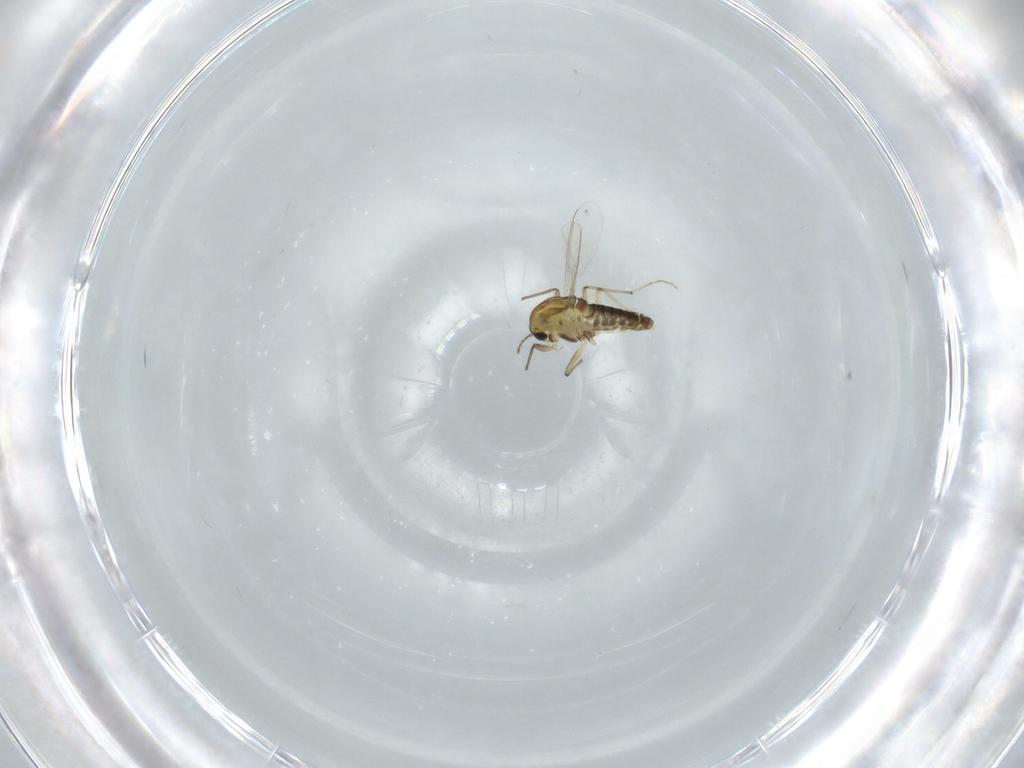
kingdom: Animalia
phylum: Arthropoda
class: Insecta
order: Diptera
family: Chironomidae
